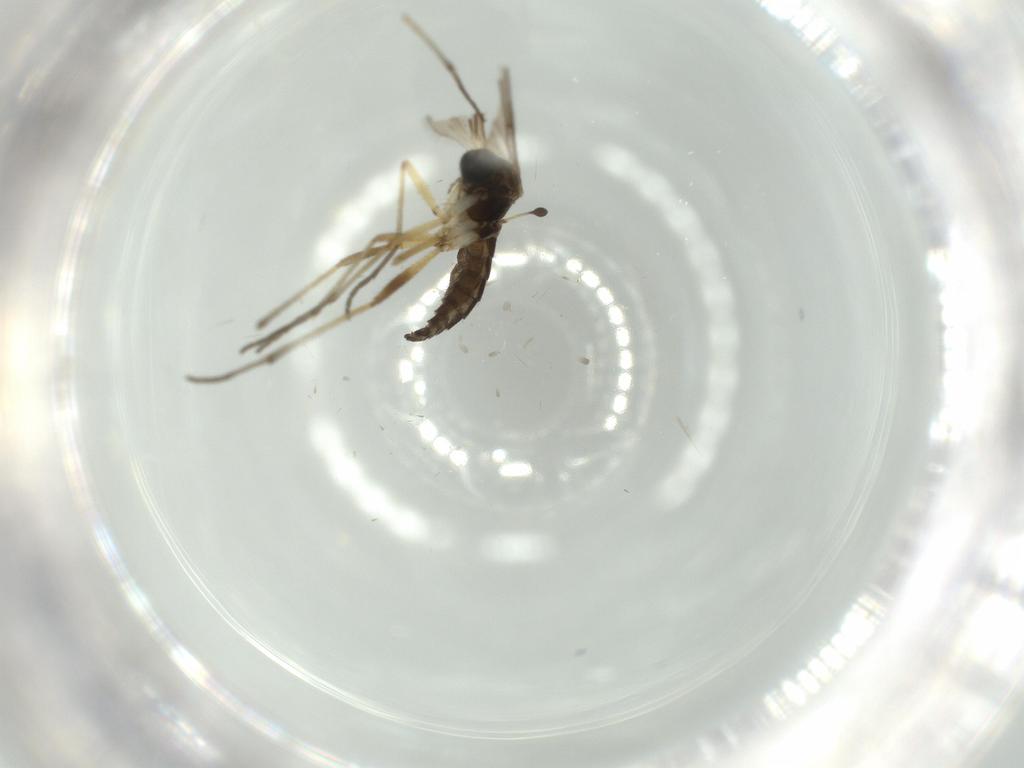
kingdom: Animalia
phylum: Arthropoda
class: Insecta
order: Diptera
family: Sciaridae
